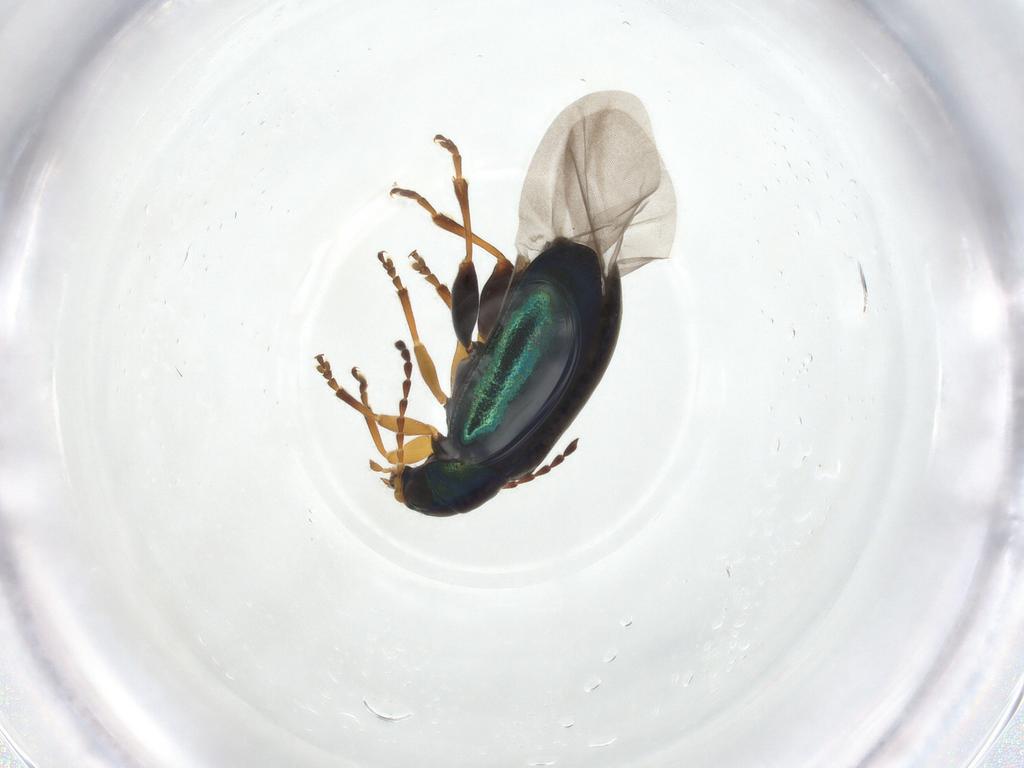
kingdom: Animalia
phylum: Arthropoda
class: Insecta
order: Coleoptera
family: Chrysomelidae
